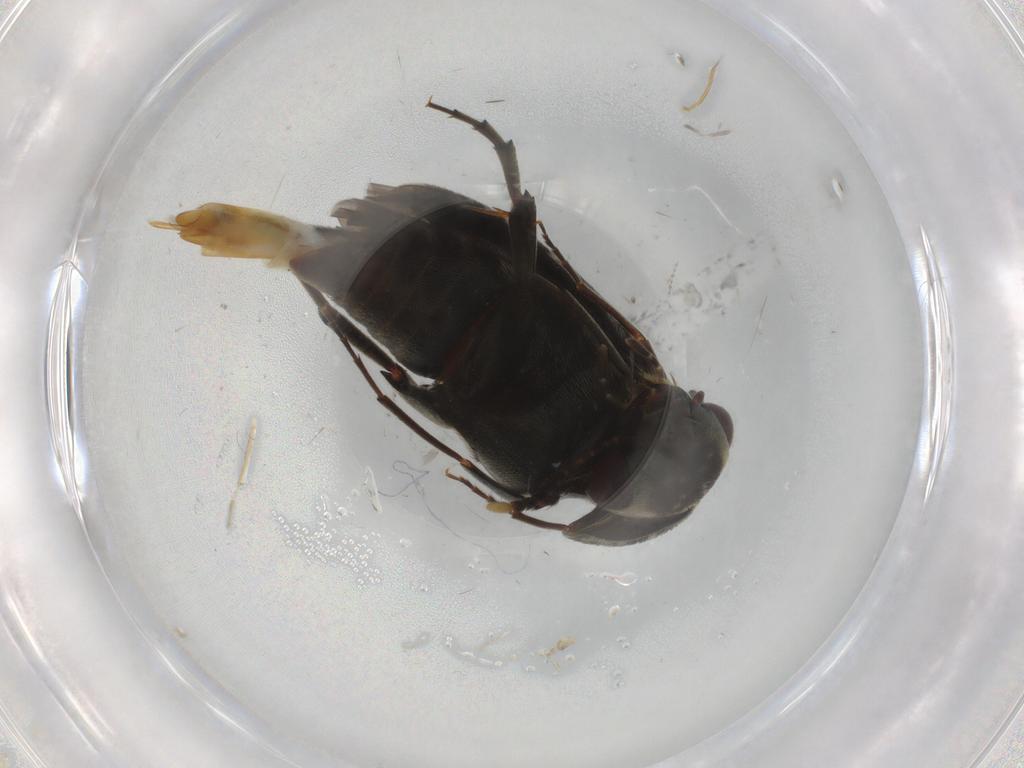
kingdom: Animalia
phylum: Arthropoda
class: Insecta
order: Coleoptera
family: Mordellidae
